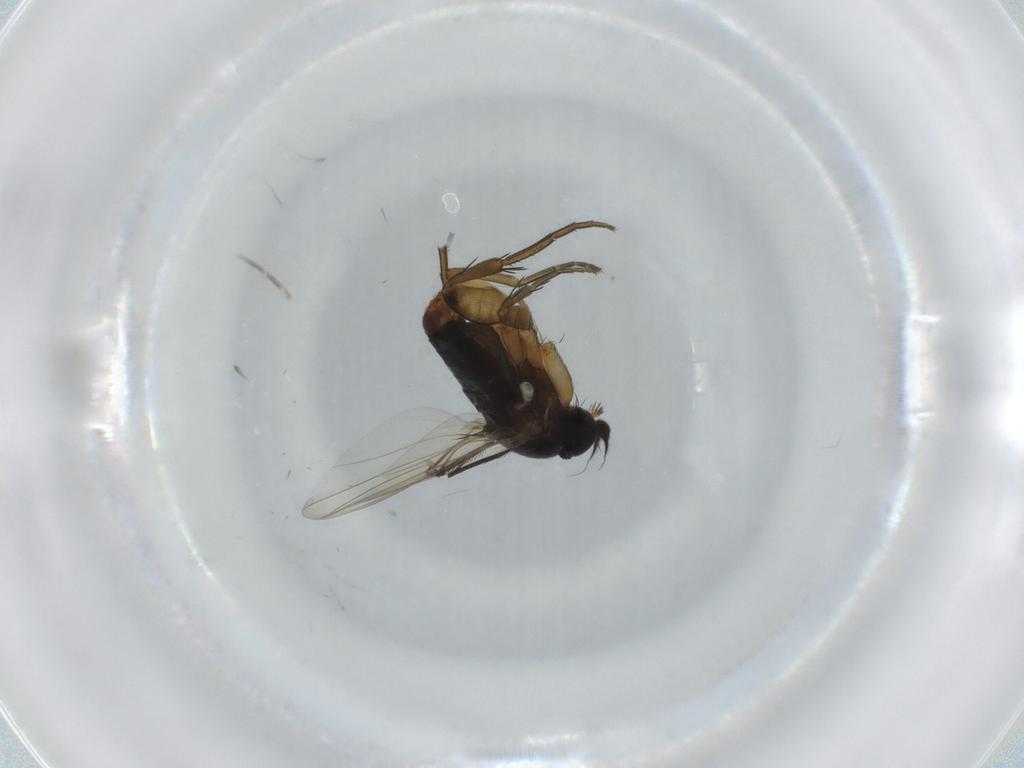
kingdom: Animalia
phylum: Arthropoda
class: Insecta
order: Diptera
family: Phoridae
